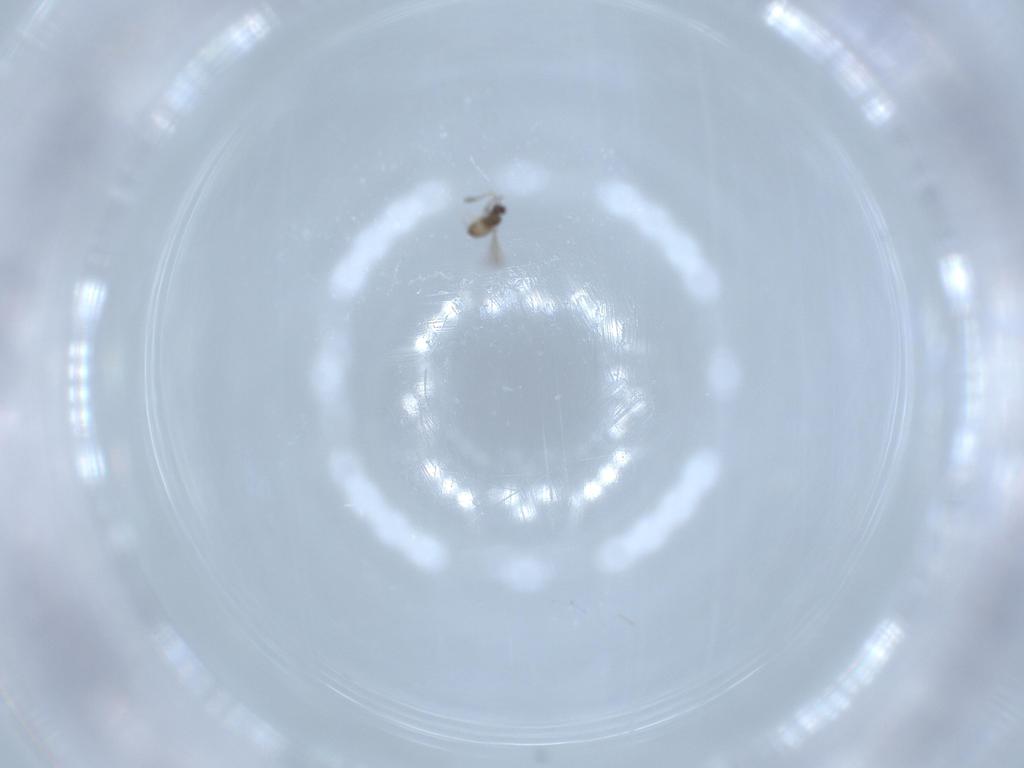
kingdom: Animalia
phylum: Arthropoda
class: Insecta
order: Hymenoptera
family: Mymaridae
